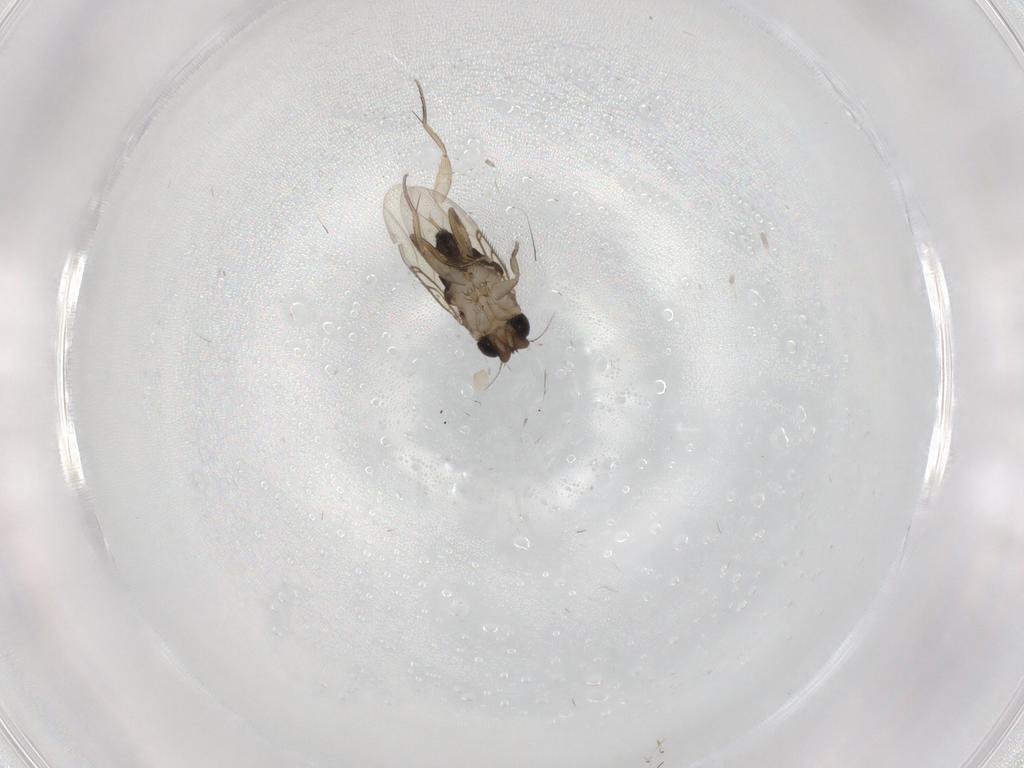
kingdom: Animalia
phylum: Arthropoda
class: Insecta
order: Diptera
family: Phoridae
